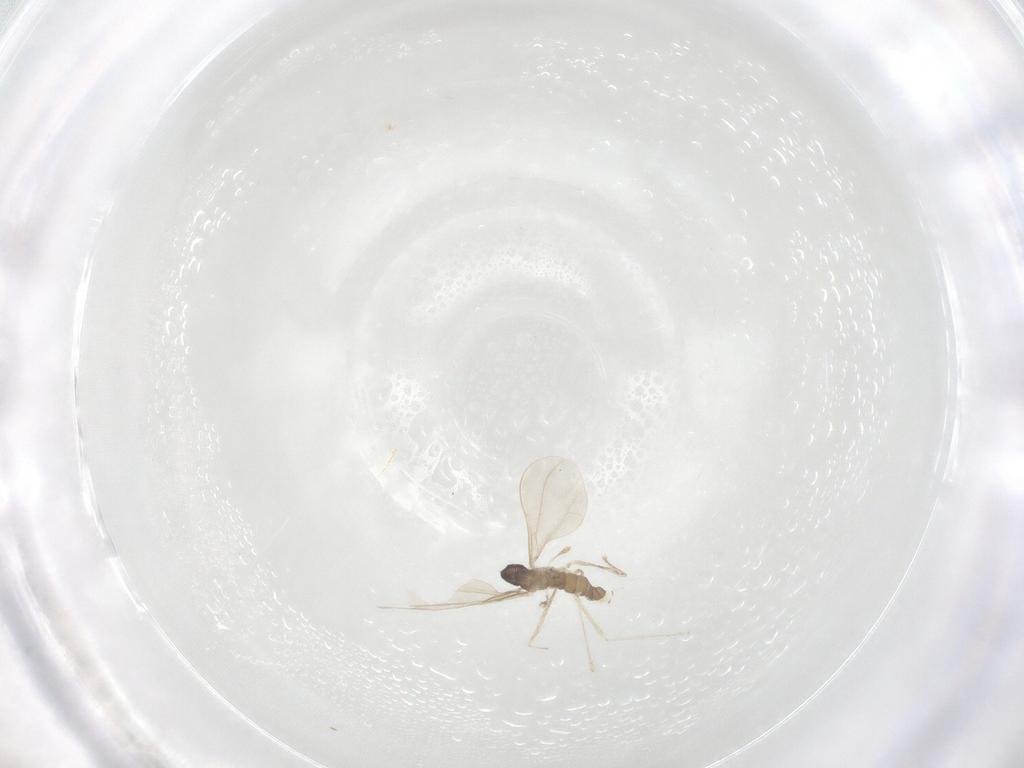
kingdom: Animalia
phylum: Arthropoda
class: Insecta
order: Diptera
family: Cecidomyiidae
